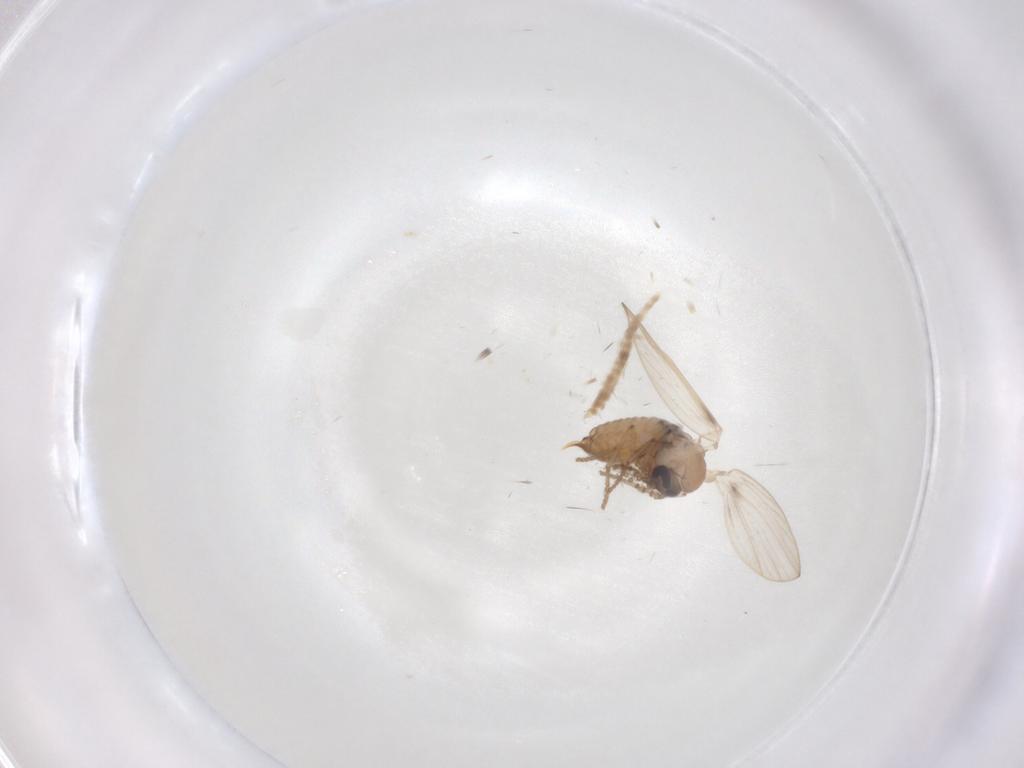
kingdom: Animalia
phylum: Arthropoda
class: Insecta
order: Diptera
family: Psychodidae
